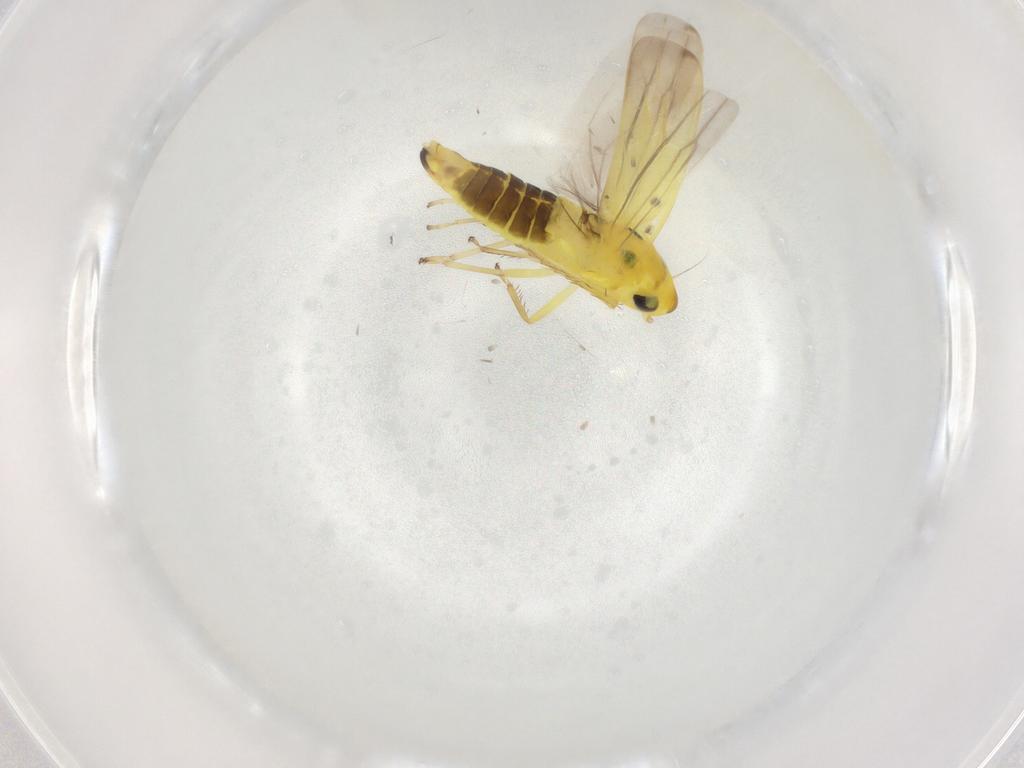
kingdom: Animalia
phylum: Arthropoda
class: Insecta
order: Hemiptera
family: Cicadellidae
